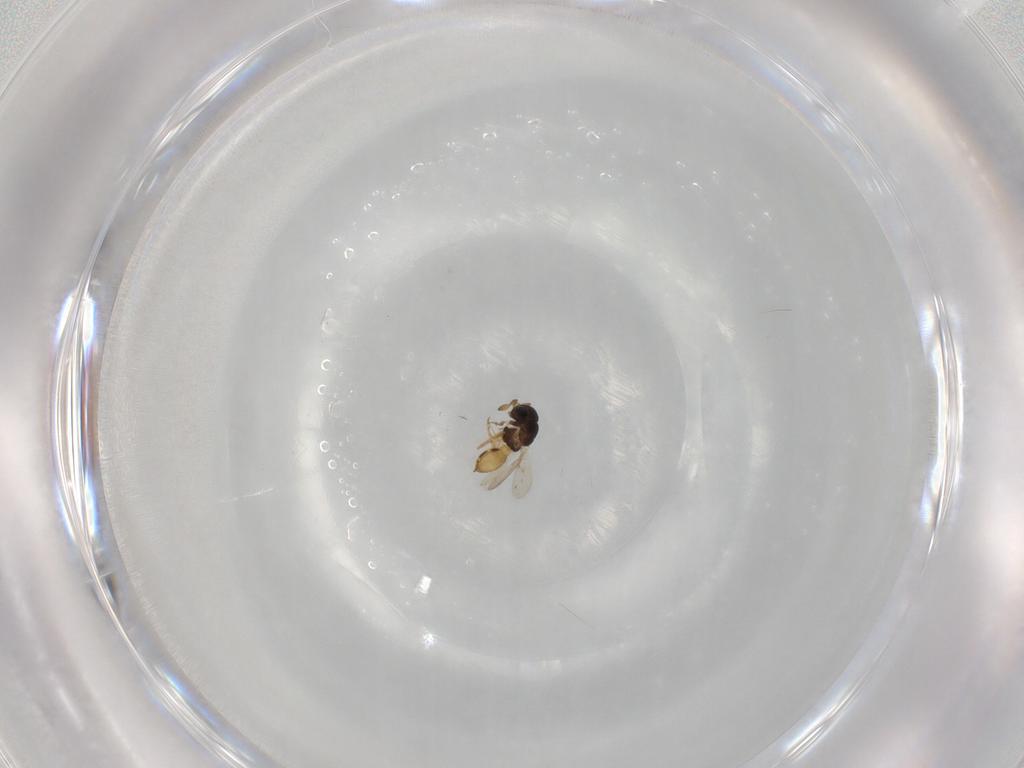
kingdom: Animalia
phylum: Arthropoda
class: Insecta
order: Hymenoptera
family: Scelionidae
